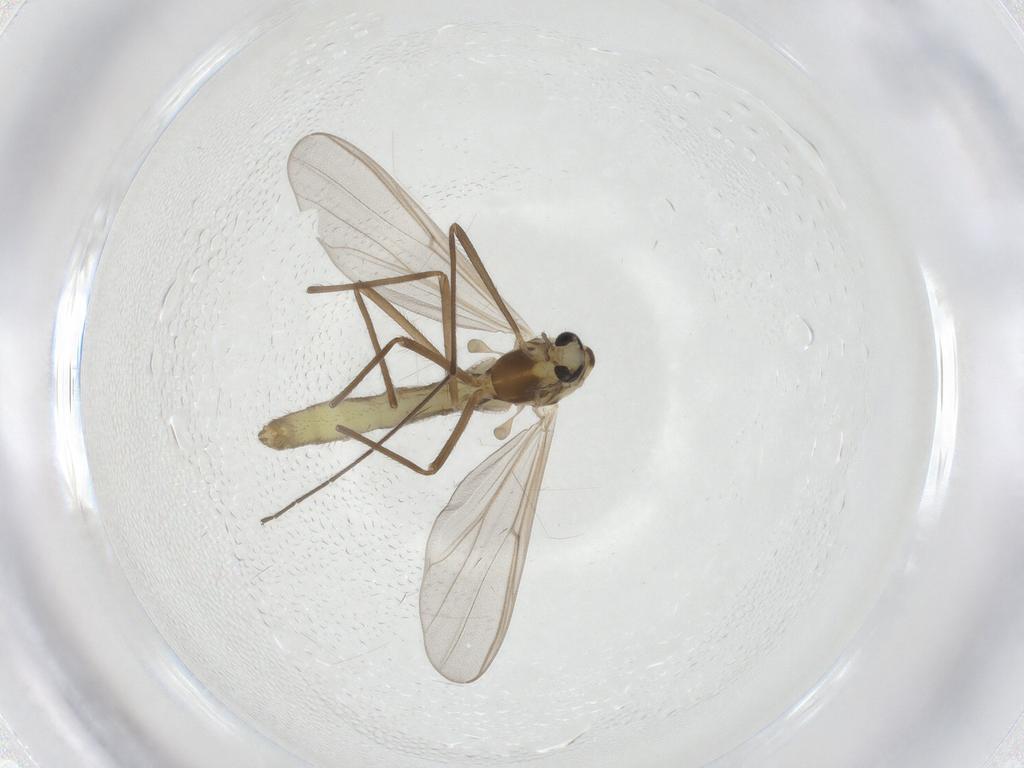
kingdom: Animalia
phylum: Arthropoda
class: Insecta
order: Diptera
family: Chironomidae
